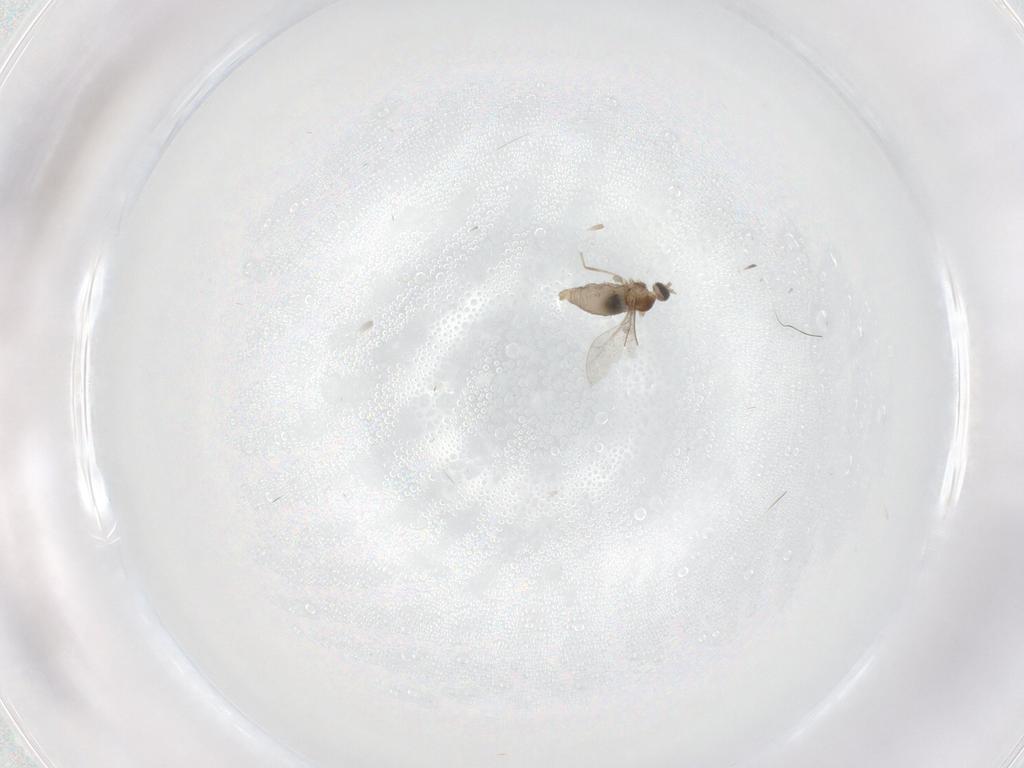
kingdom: Animalia
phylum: Arthropoda
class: Insecta
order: Diptera
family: Cecidomyiidae
